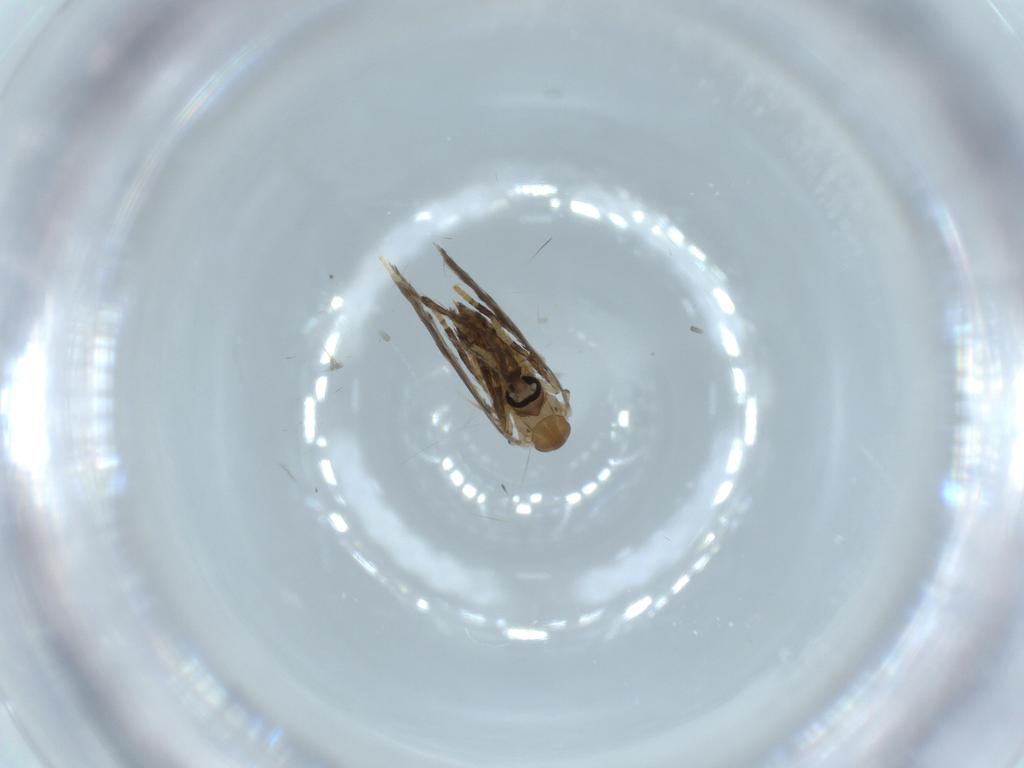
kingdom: Animalia
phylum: Arthropoda
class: Insecta
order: Diptera
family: Psychodidae
